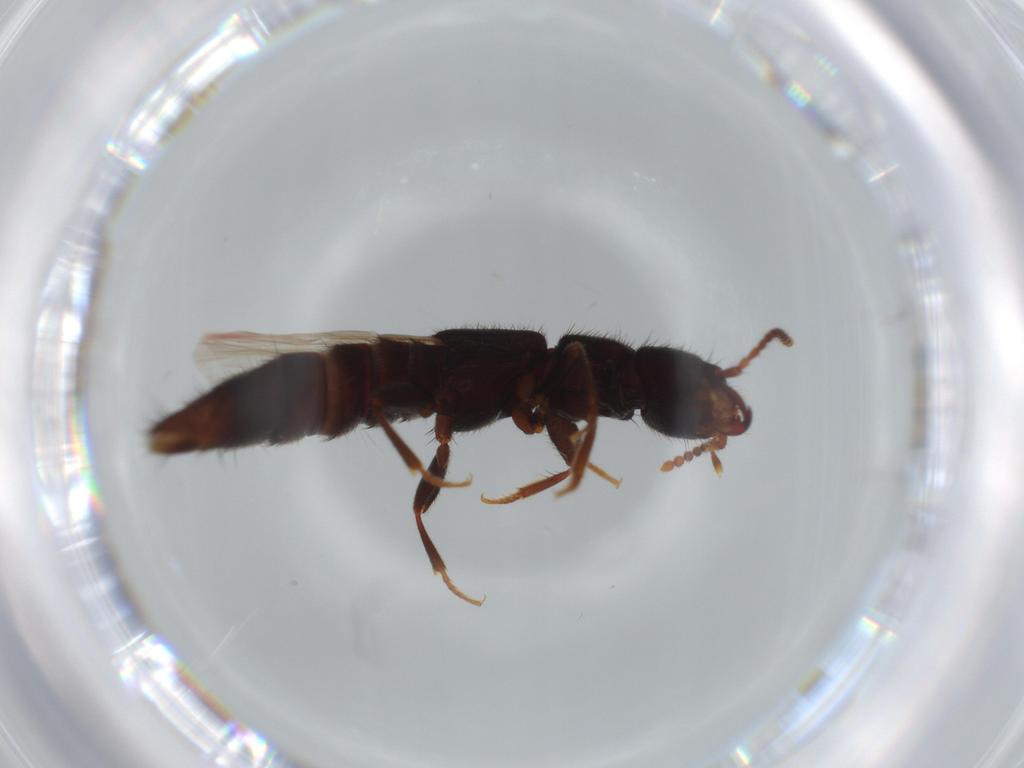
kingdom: Animalia
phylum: Arthropoda
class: Insecta
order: Coleoptera
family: Staphylinidae
